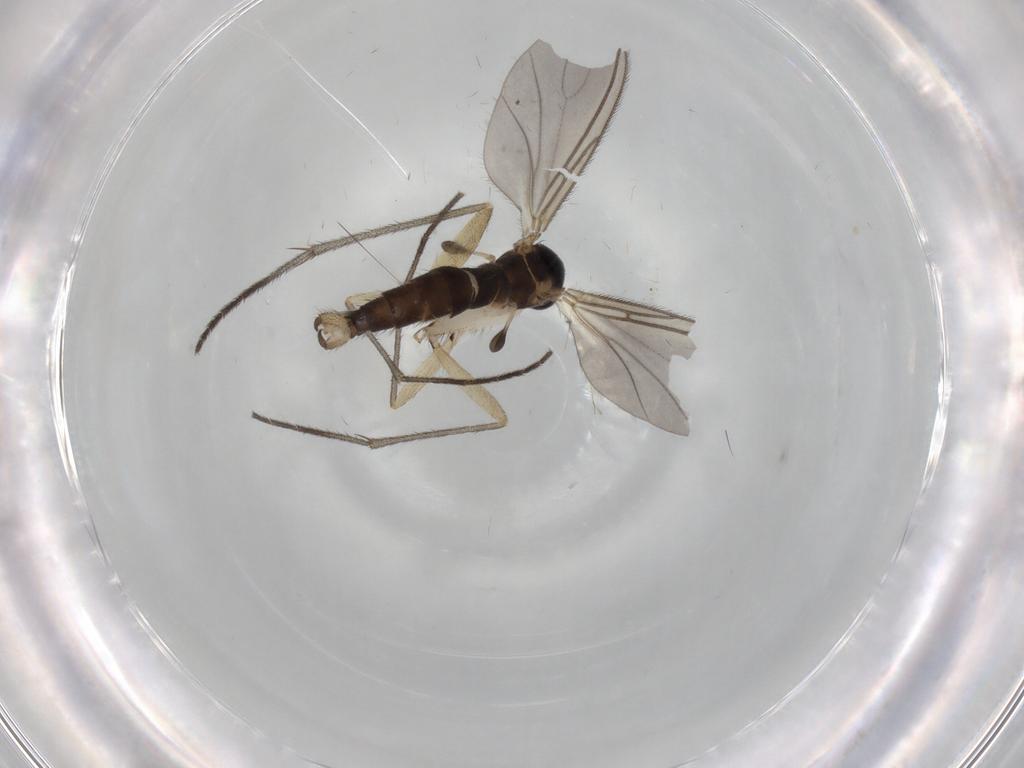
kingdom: Animalia
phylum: Arthropoda
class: Insecta
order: Diptera
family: Sciaridae
